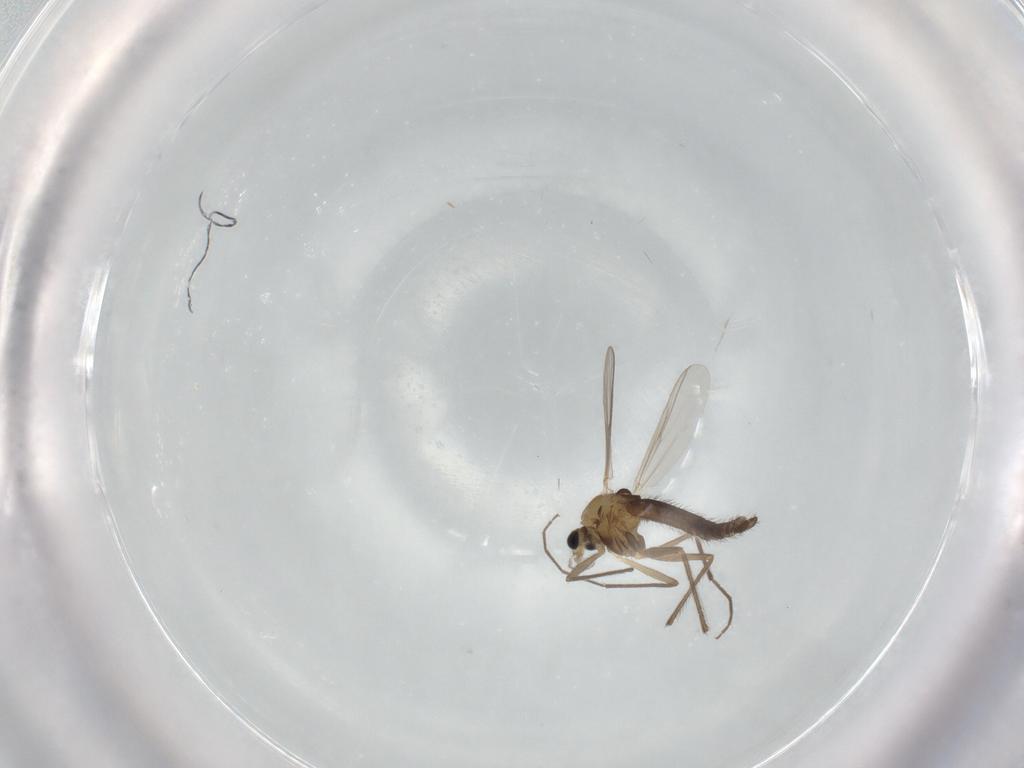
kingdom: Animalia
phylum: Arthropoda
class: Insecta
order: Diptera
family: Chironomidae
